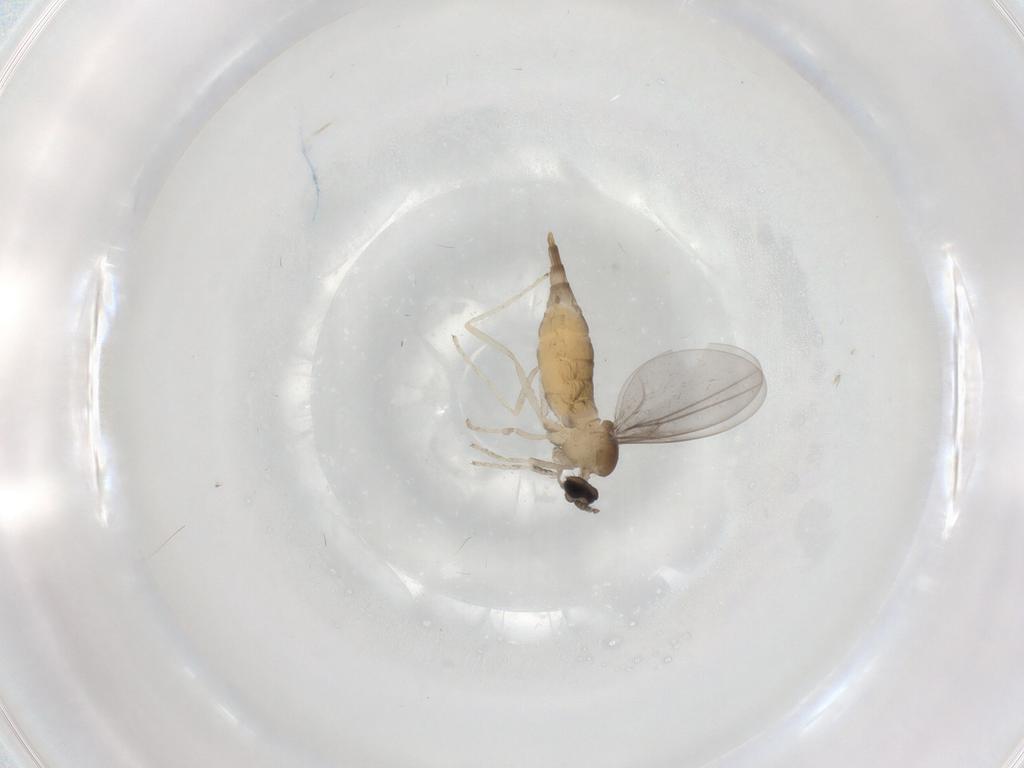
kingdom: Animalia
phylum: Arthropoda
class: Insecta
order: Diptera
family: Cecidomyiidae
